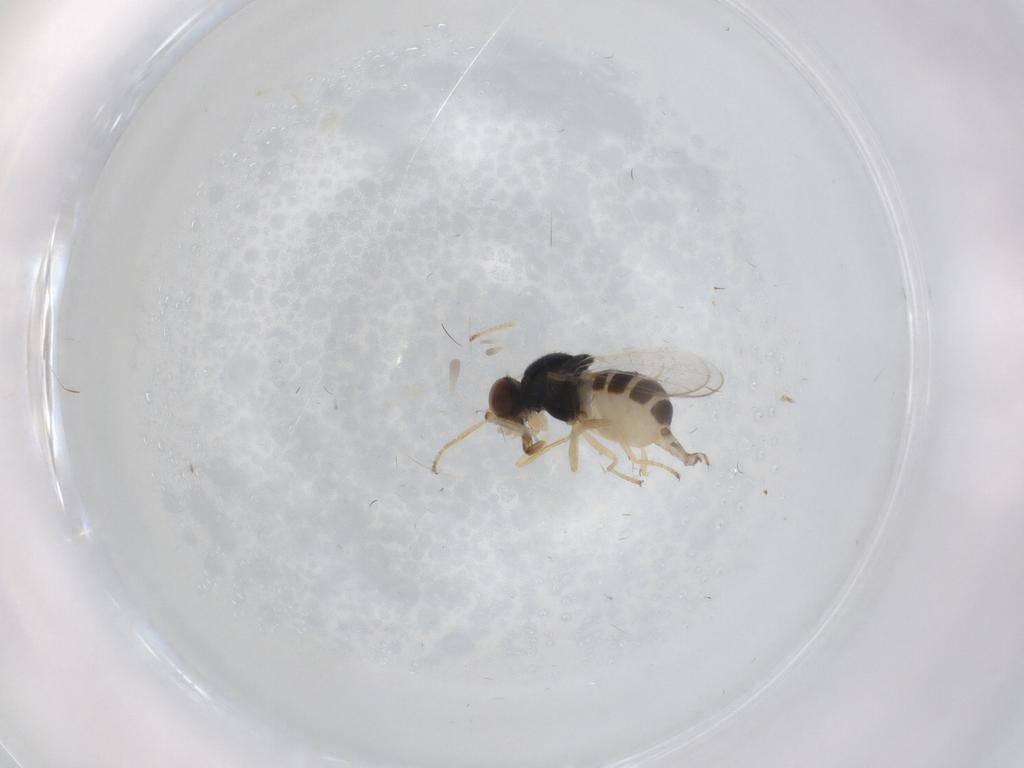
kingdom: Animalia
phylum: Arthropoda
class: Insecta
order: Diptera
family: Chloropidae
